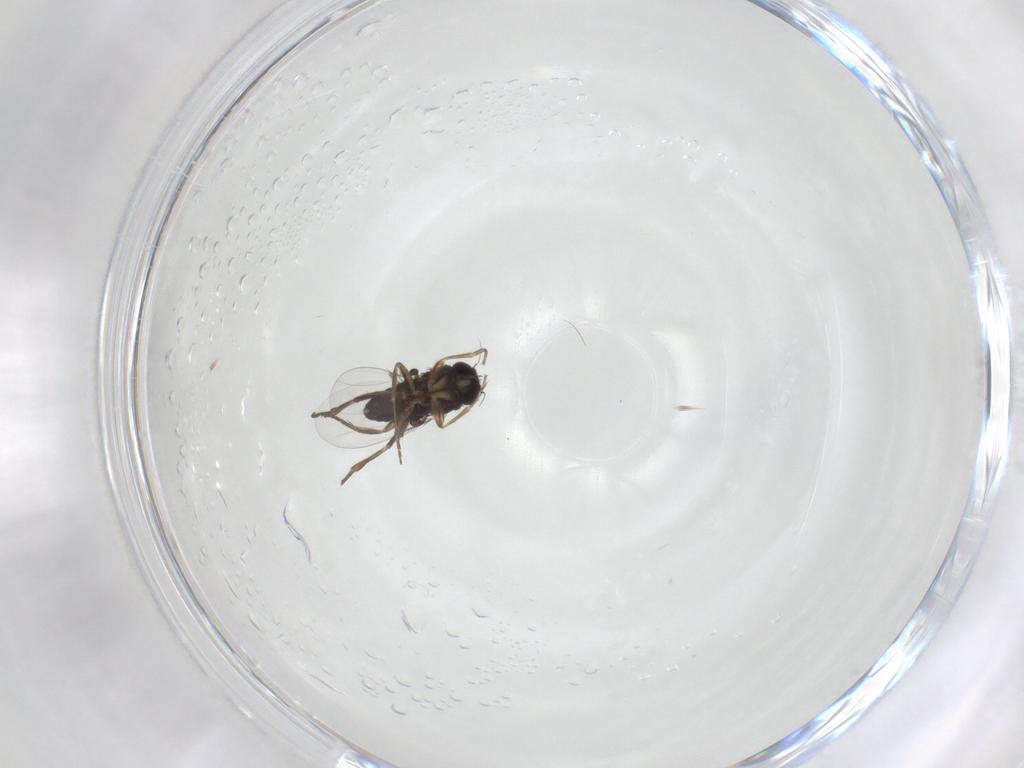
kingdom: Animalia
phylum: Arthropoda
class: Insecta
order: Diptera
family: Phoridae
